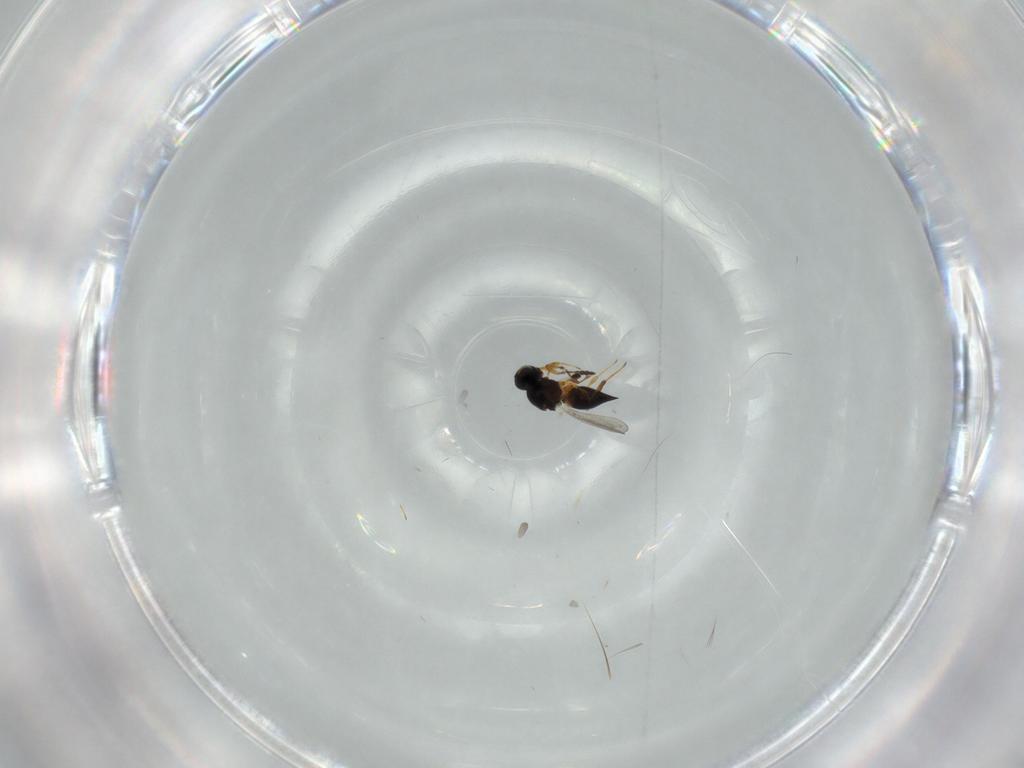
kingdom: Animalia
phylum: Arthropoda
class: Insecta
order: Hymenoptera
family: Platygastridae
